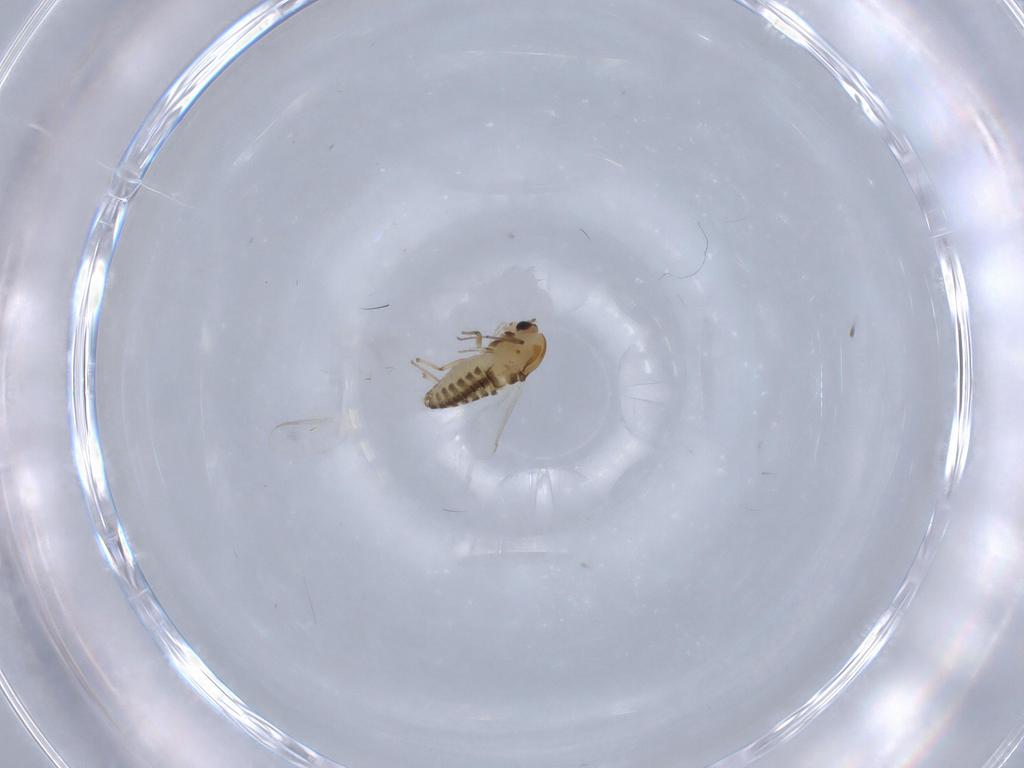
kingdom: Animalia
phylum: Arthropoda
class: Insecta
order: Diptera
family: Chironomidae
